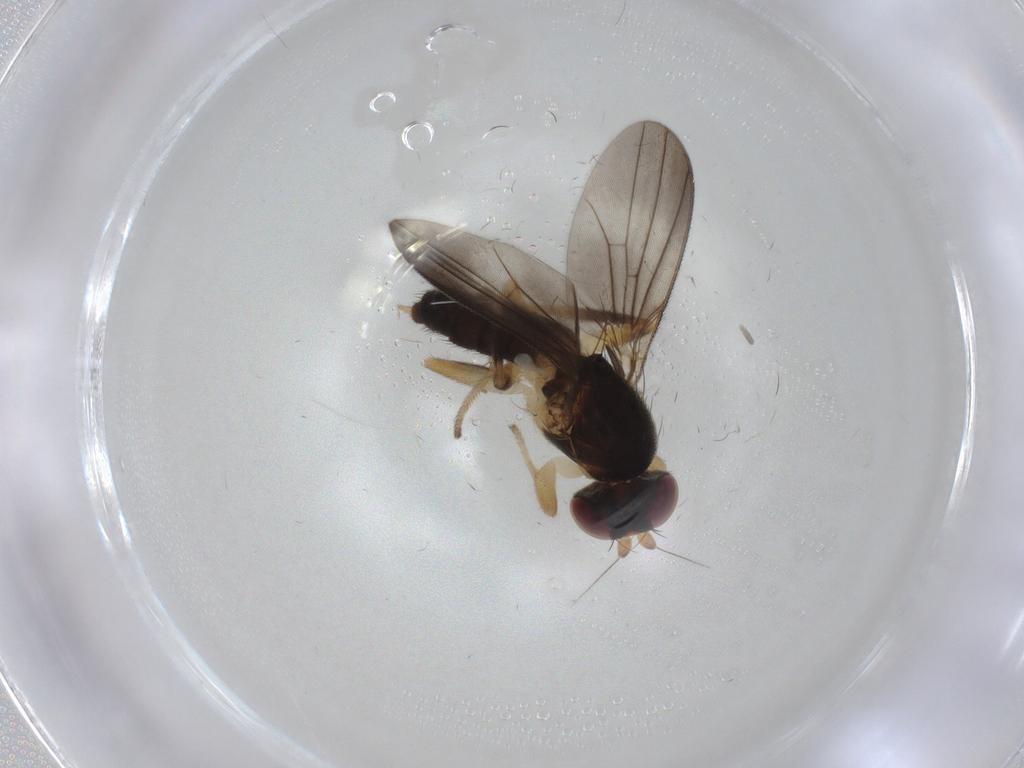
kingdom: Animalia
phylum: Arthropoda
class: Insecta
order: Diptera
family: Clusiidae
